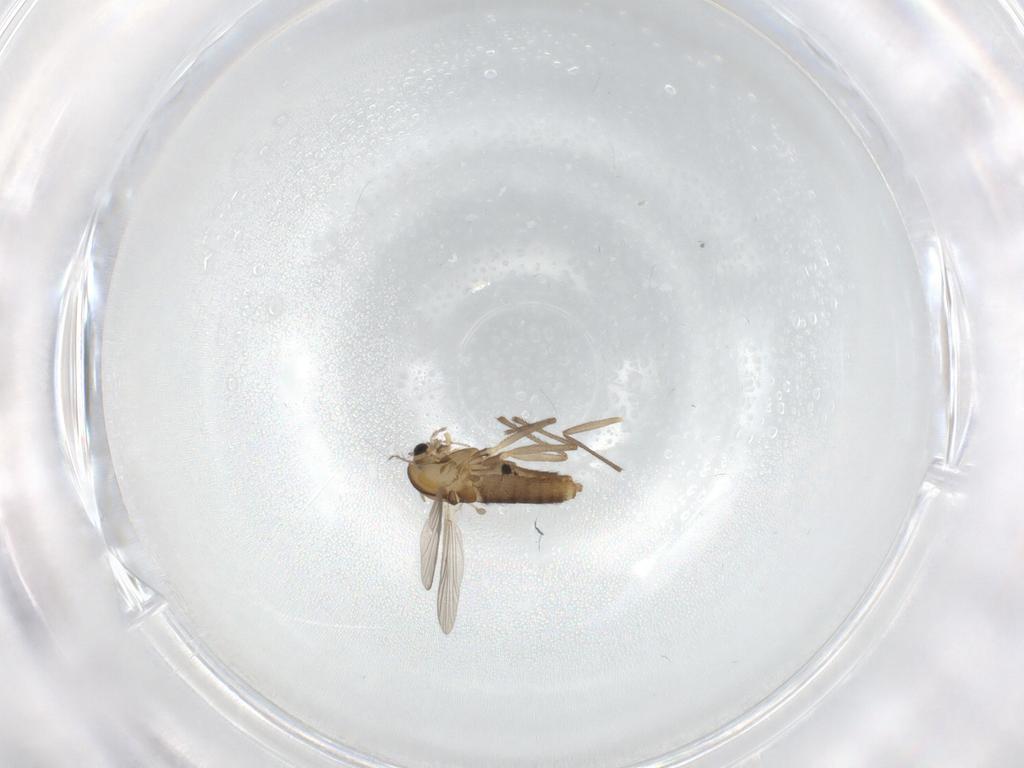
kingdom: Animalia
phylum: Arthropoda
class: Insecta
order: Diptera
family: Chironomidae
